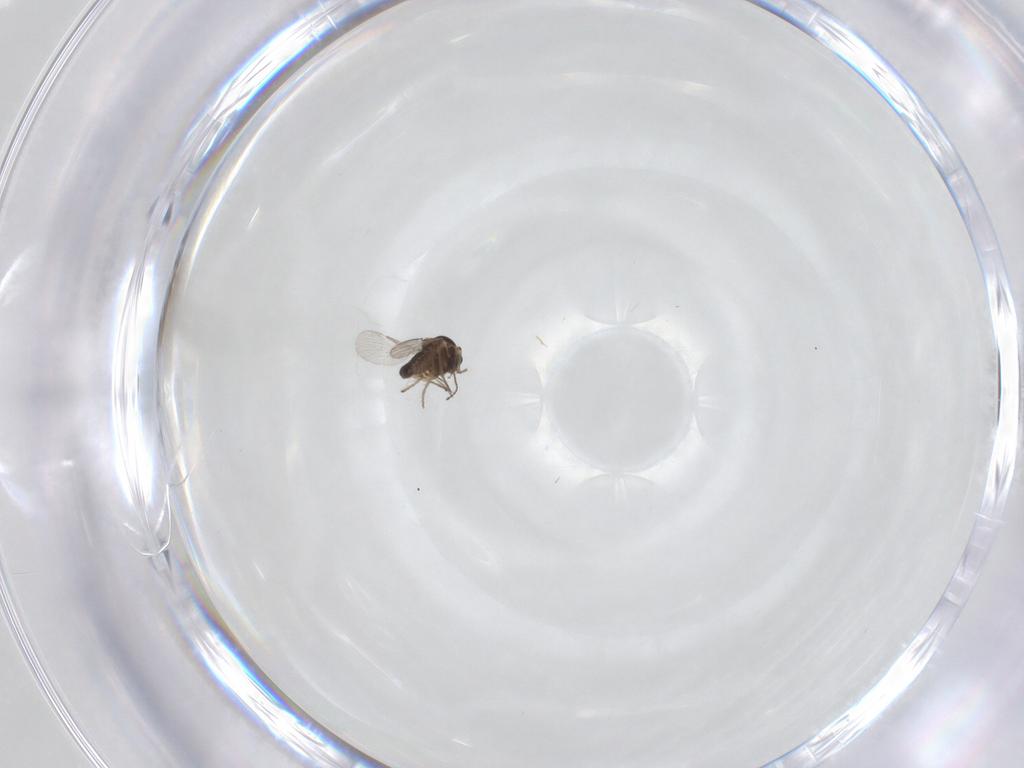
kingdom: Animalia
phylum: Arthropoda
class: Insecta
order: Diptera
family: Ceratopogonidae
